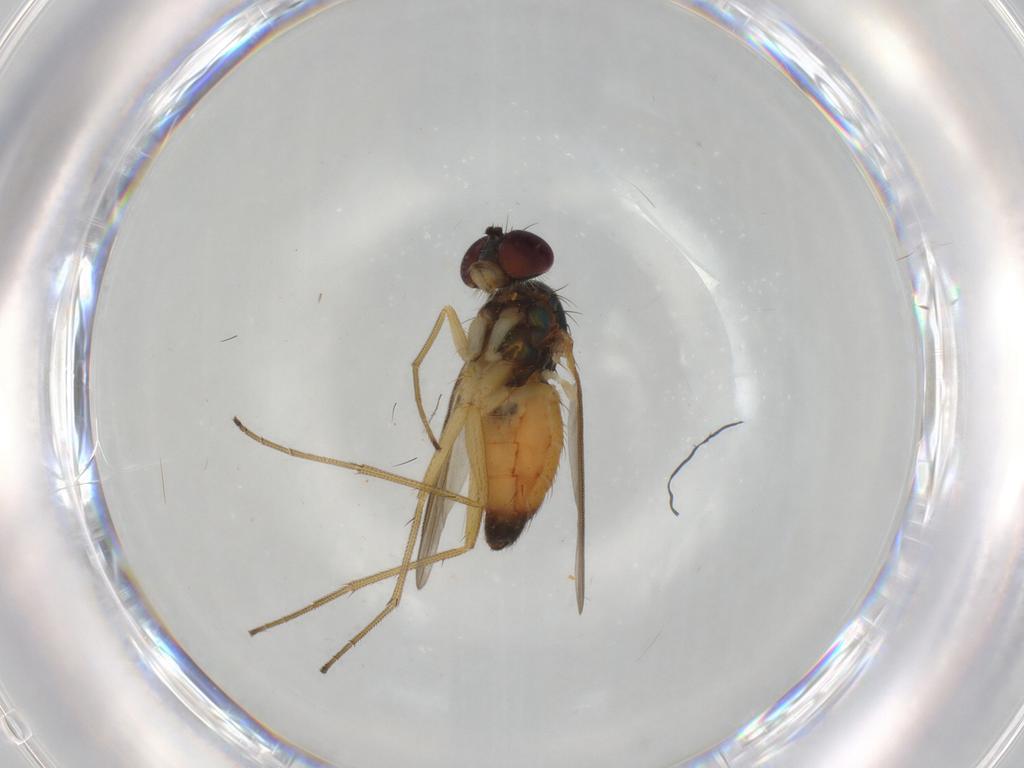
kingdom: Animalia
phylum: Arthropoda
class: Insecta
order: Diptera
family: Dolichopodidae
